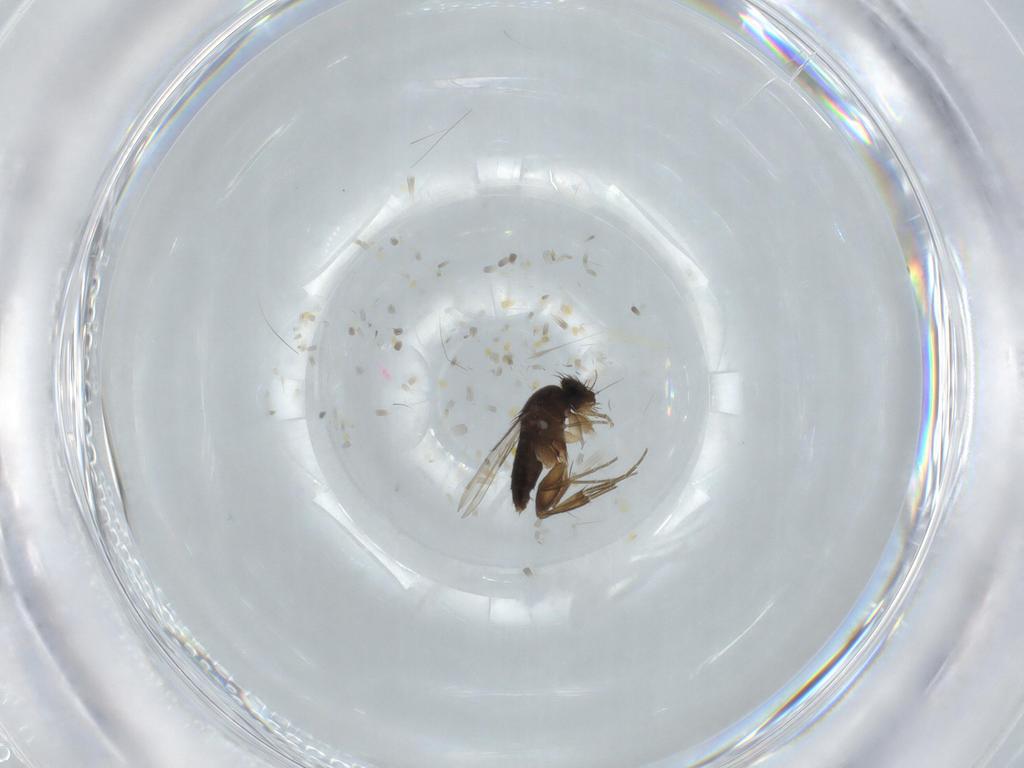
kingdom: Animalia
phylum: Arthropoda
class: Insecta
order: Diptera
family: Phoridae
